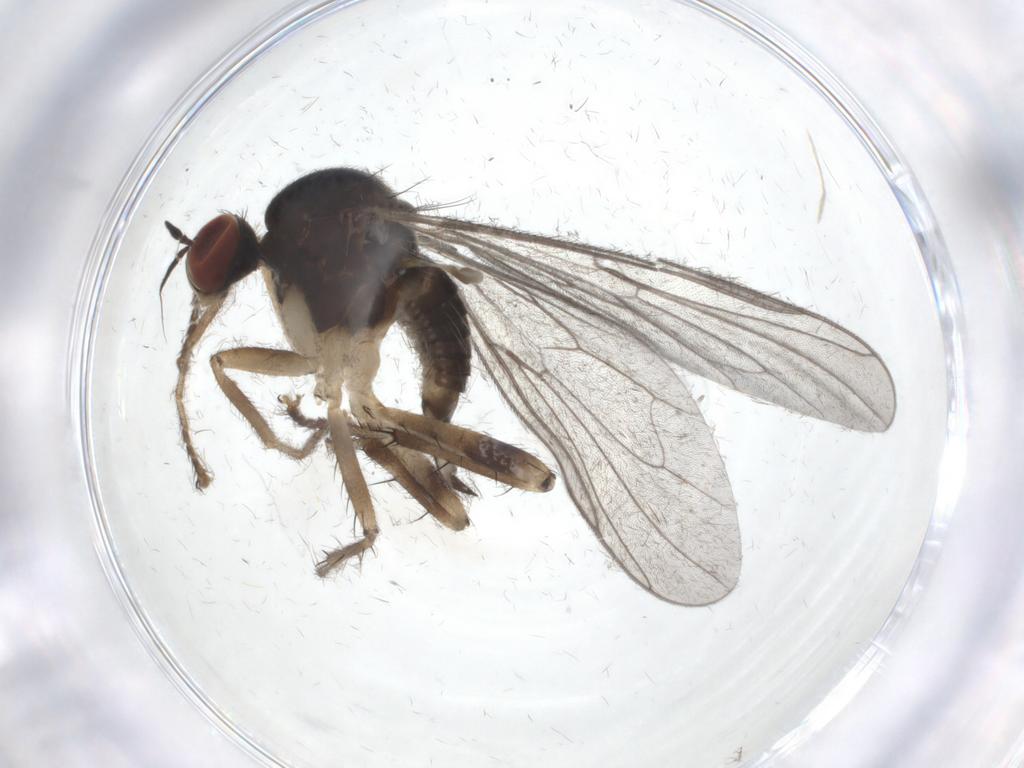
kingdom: Animalia
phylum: Arthropoda
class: Insecta
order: Diptera
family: Hybotidae
